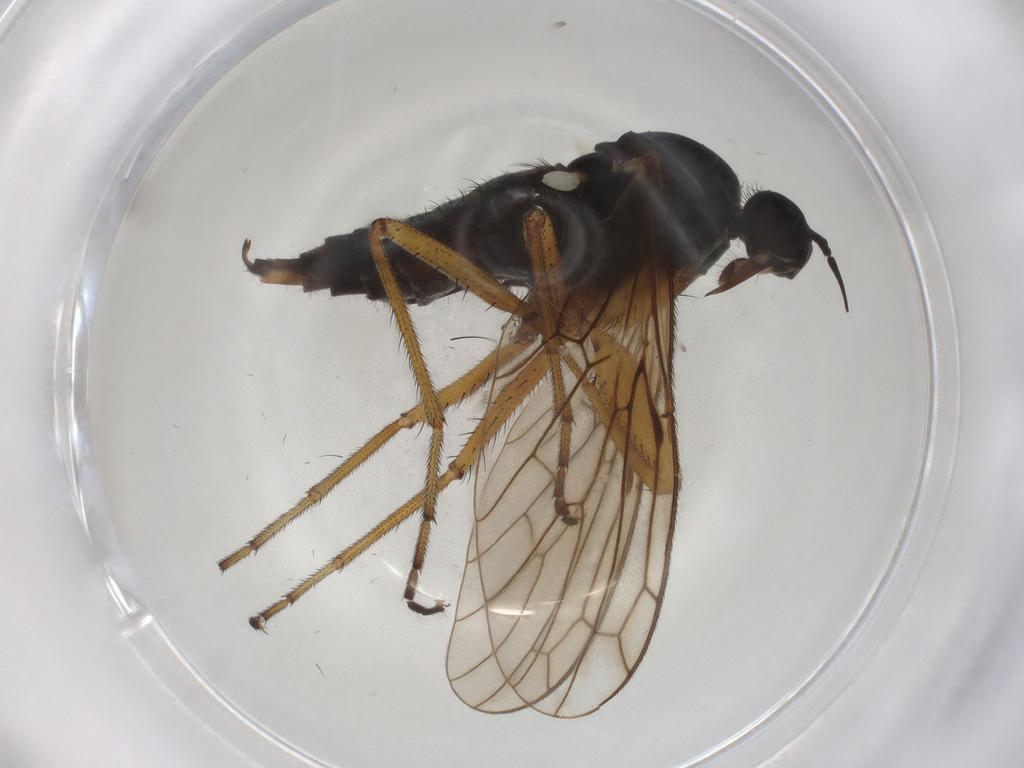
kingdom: Animalia
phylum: Arthropoda
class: Insecta
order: Diptera
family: Empididae
